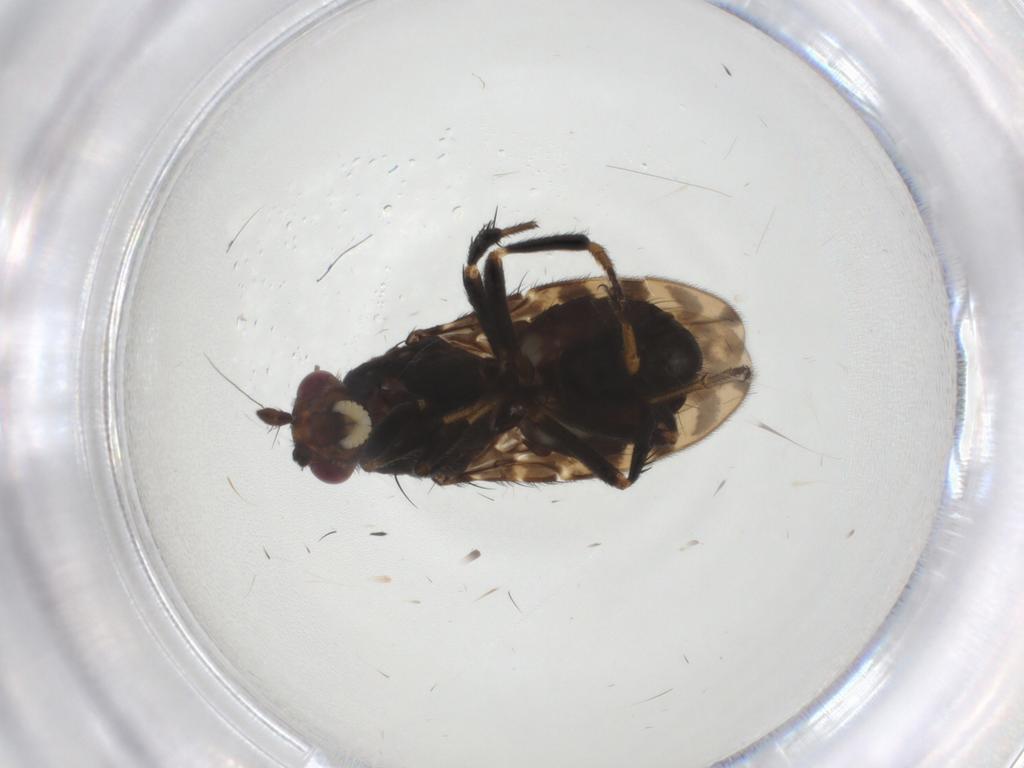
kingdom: Animalia
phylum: Arthropoda
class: Insecta
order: Diptera
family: Sphaeroceridae
